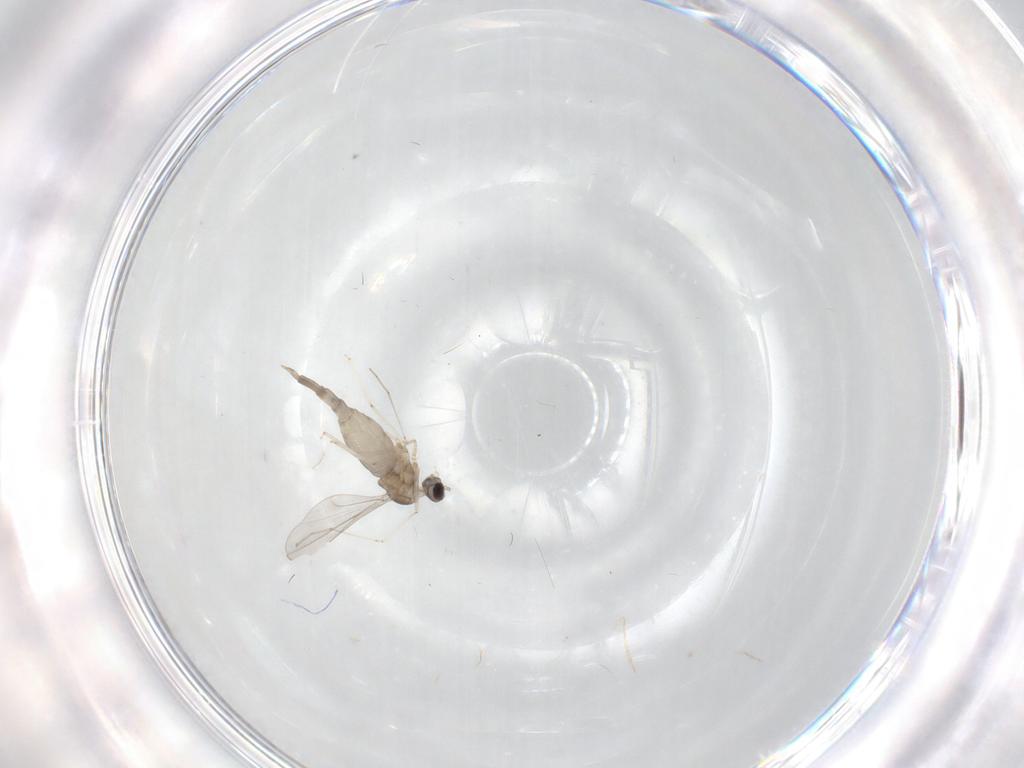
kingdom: Animalia
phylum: Arthropoda
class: Insecta
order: Diptera
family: Cecidomyiidae
